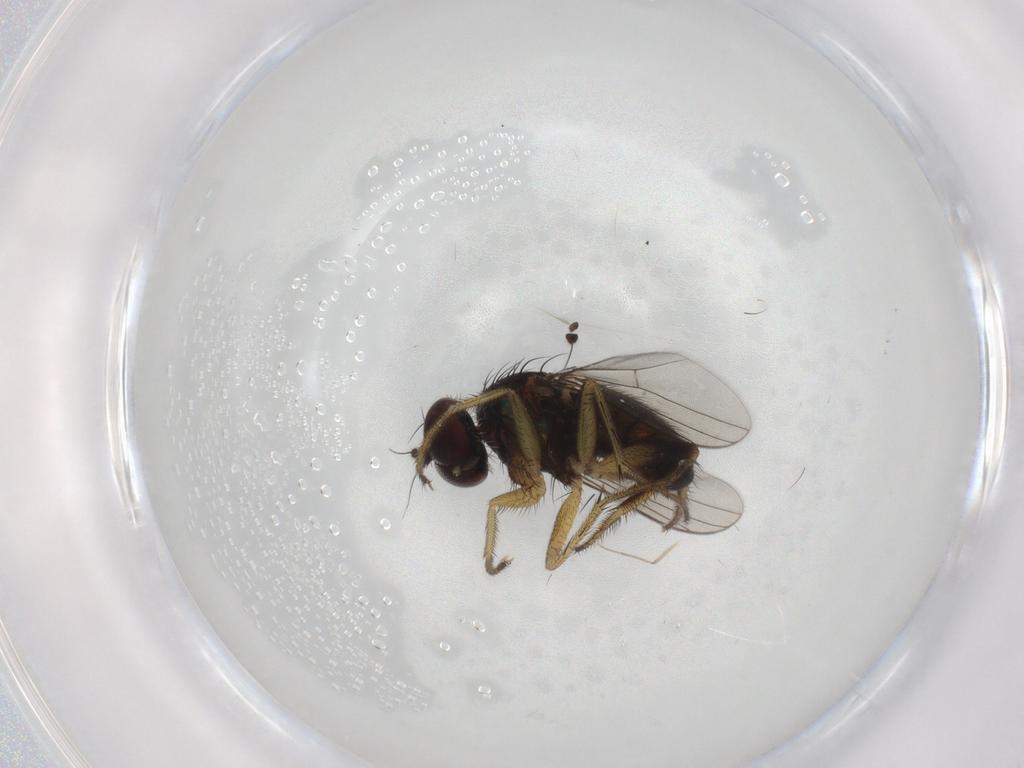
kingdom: Animalia
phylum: Arthropoda
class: Insecta
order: Diptera
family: Dolichopodidae
